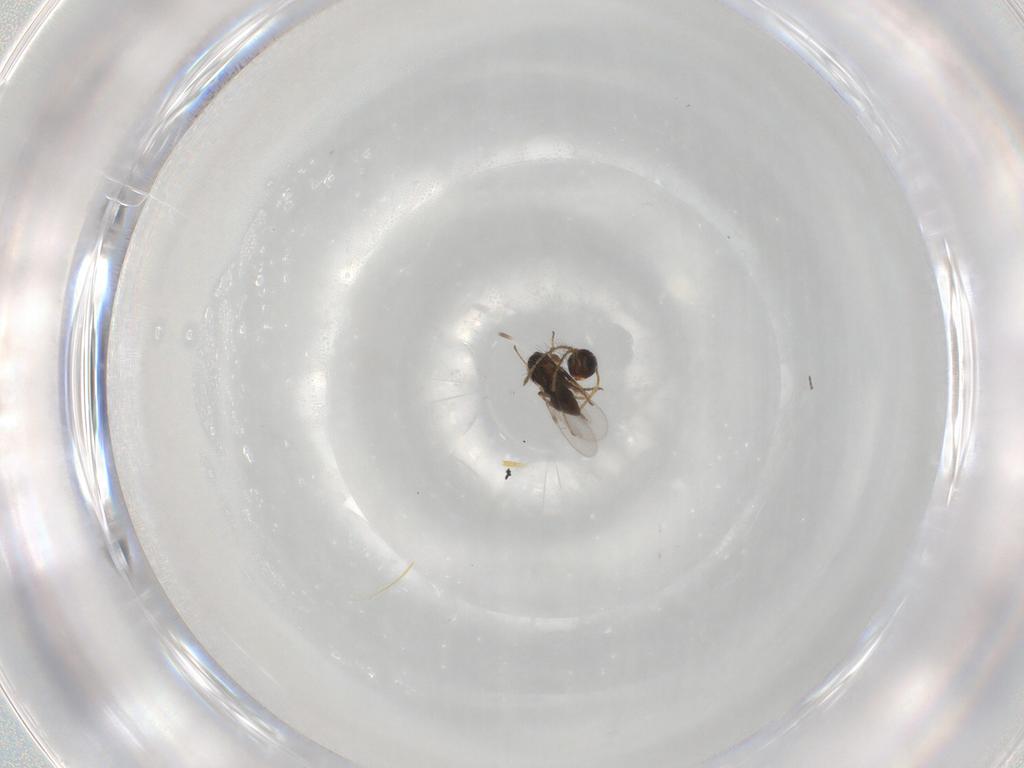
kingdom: Animalia
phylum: Arthropoda
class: Insecta
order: Hymenoptera
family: Encyrtidae
